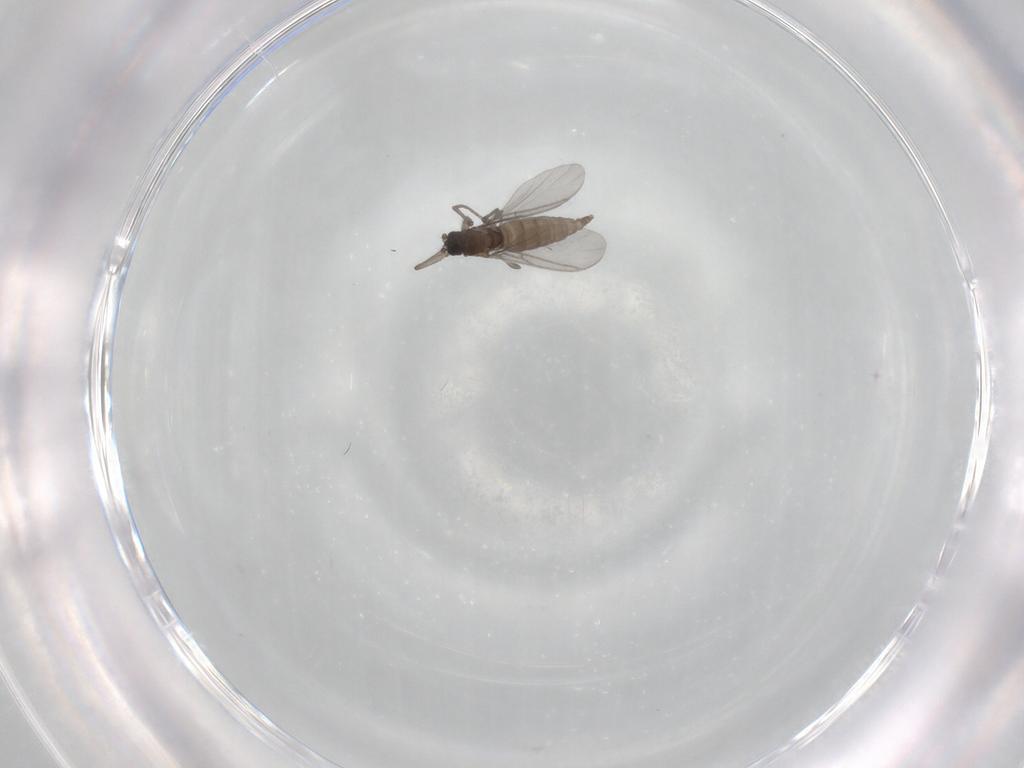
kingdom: Animalia
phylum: Arthropoda
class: Insecta
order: Diptera
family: Sciaridae
